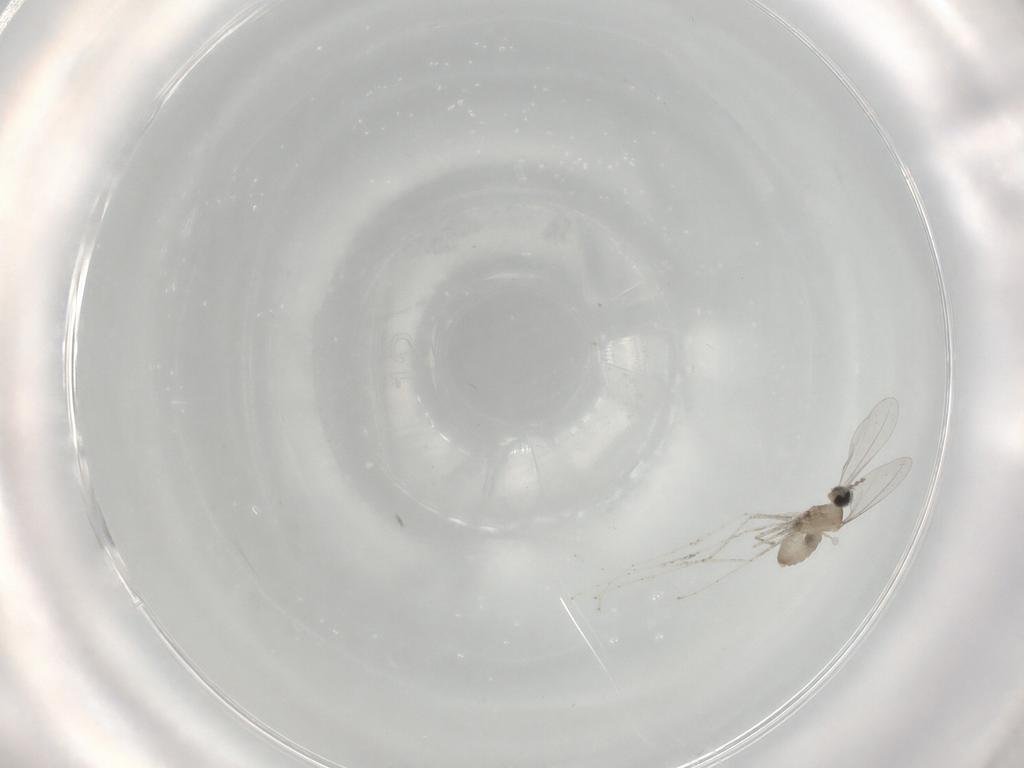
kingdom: Animalia
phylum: Arthropoda
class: Insecta
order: Diptera
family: Cecidomyiidae
